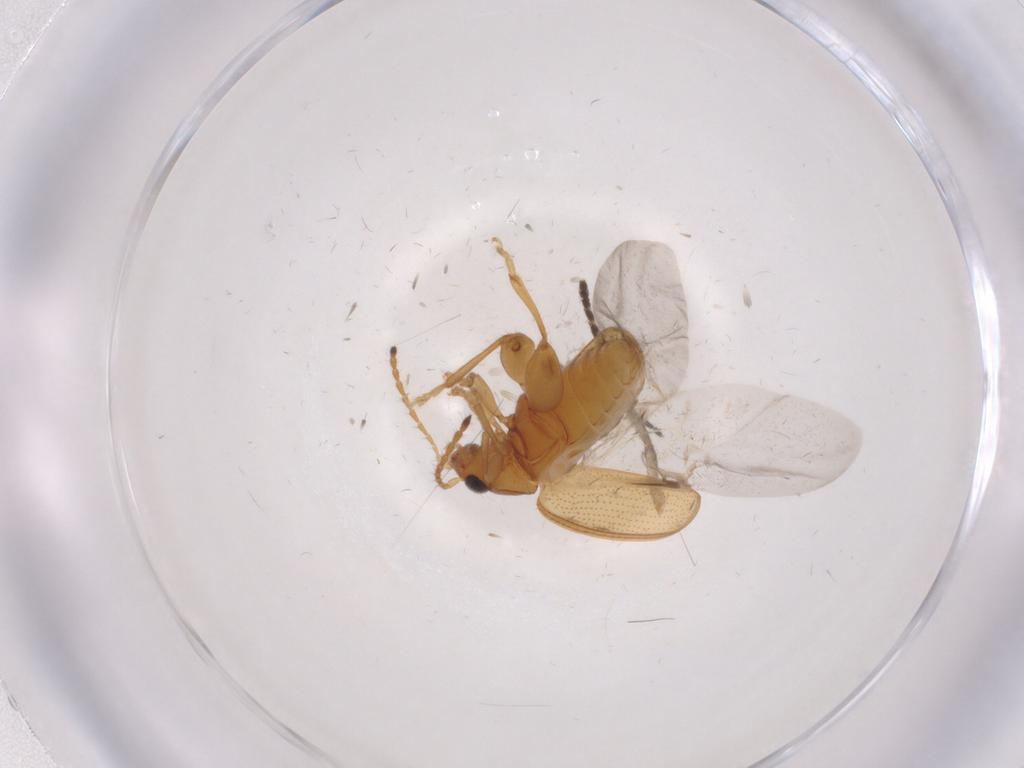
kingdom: Animalia
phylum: Arthropoda
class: Insecta
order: Coleoptera
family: Chrysomelidae
